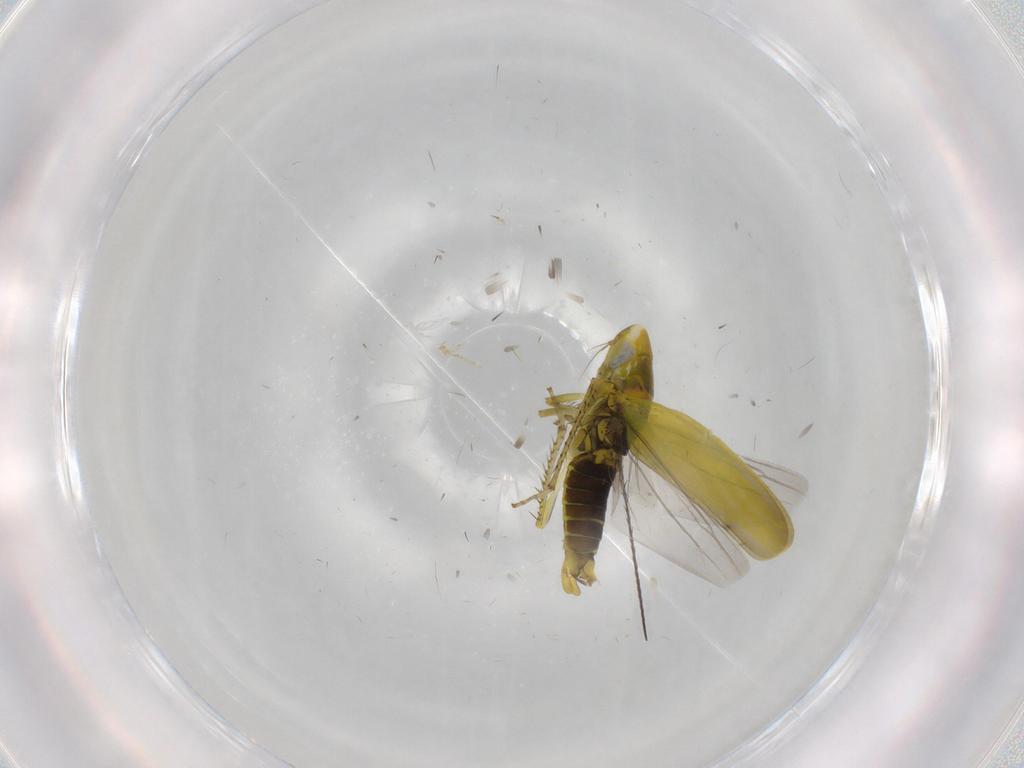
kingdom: Animalia
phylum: Arthropoda
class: Insecta
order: Hemiptera
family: Cicadellidae
